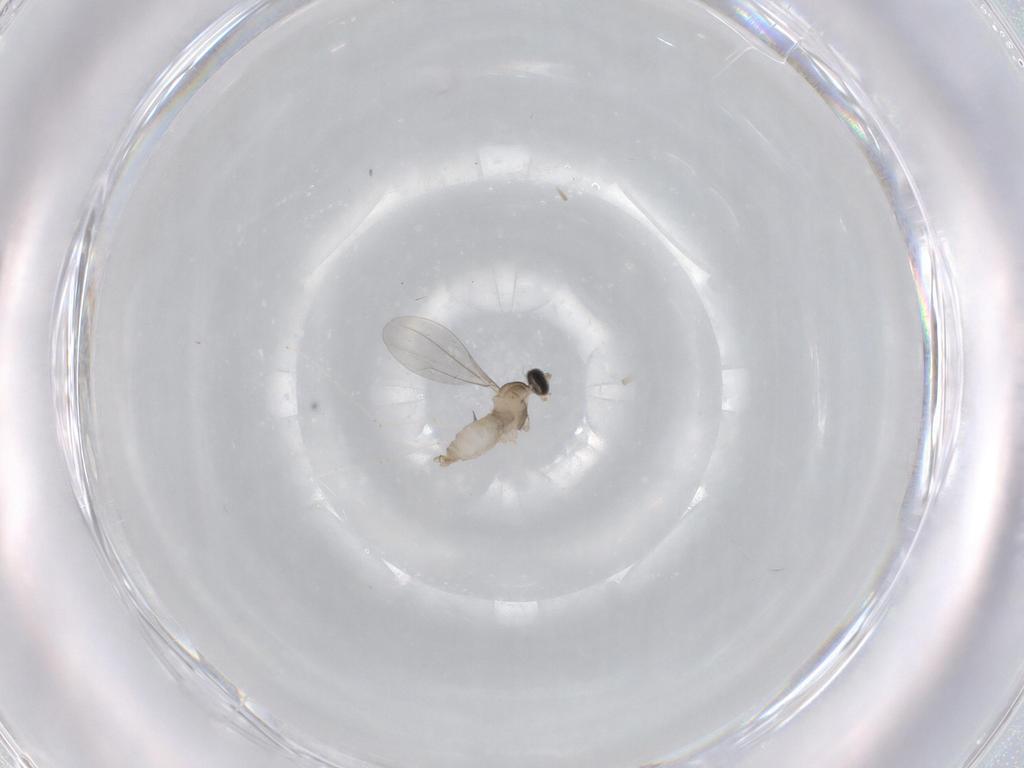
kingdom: Animalia
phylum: Arthropoda
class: Insecta
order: Diptera
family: Cecidomyiidae
